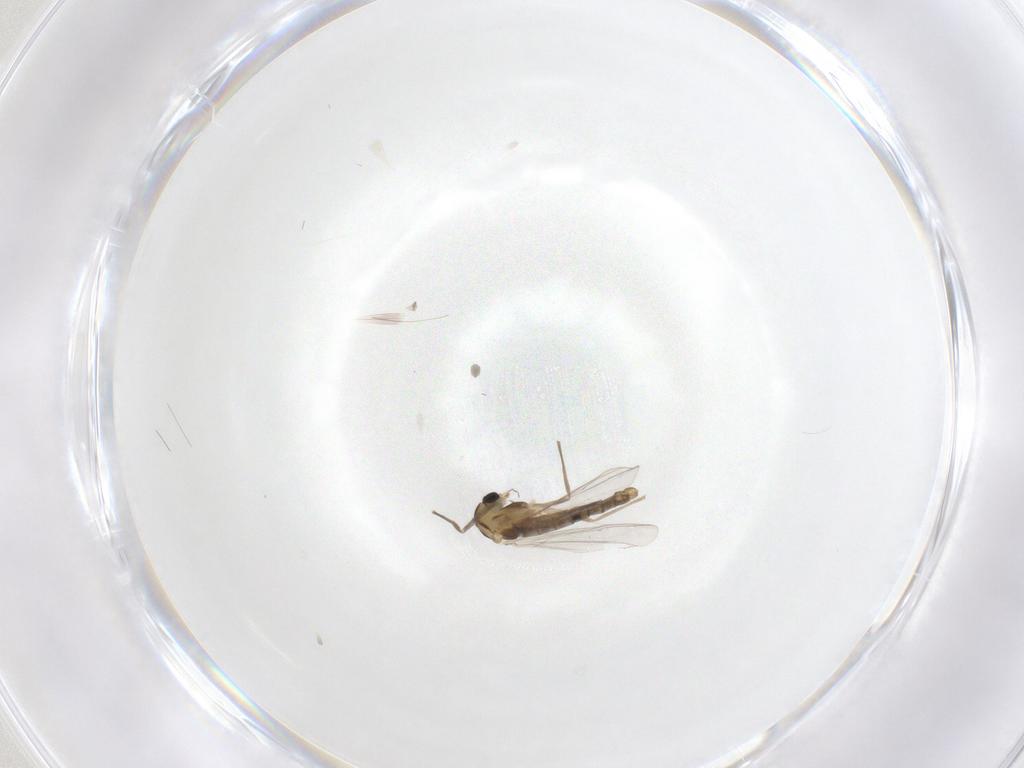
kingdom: Animalia
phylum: Arthropoda
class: Insecta
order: Diptera
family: Chironomidae
